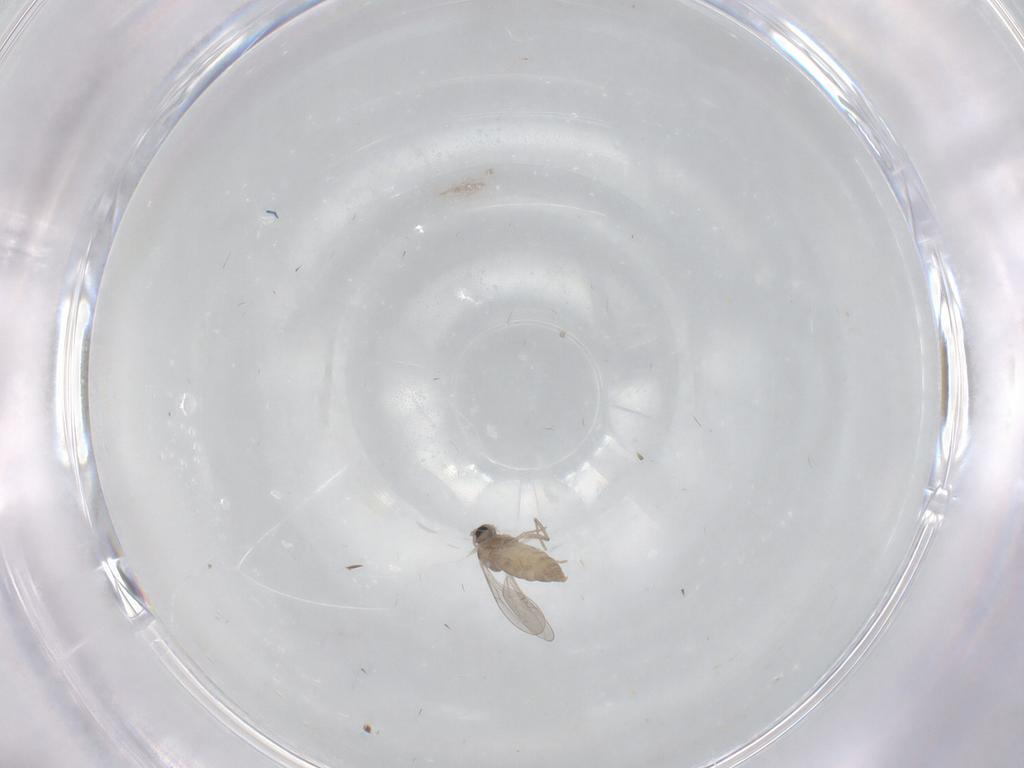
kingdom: Animalia
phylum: Arthropoda
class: Insecta
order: Diptera
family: Cecidomyiidae
